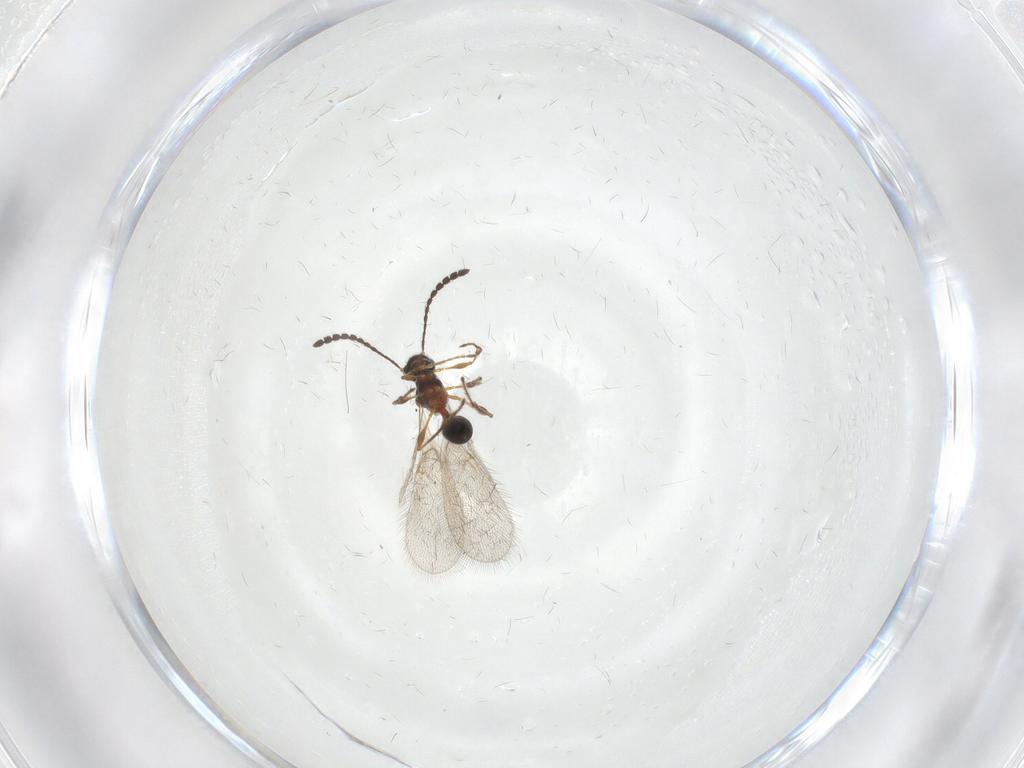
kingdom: Animalia
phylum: Arthropoda
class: Insecta
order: Hymenoptera
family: Diapriidae
